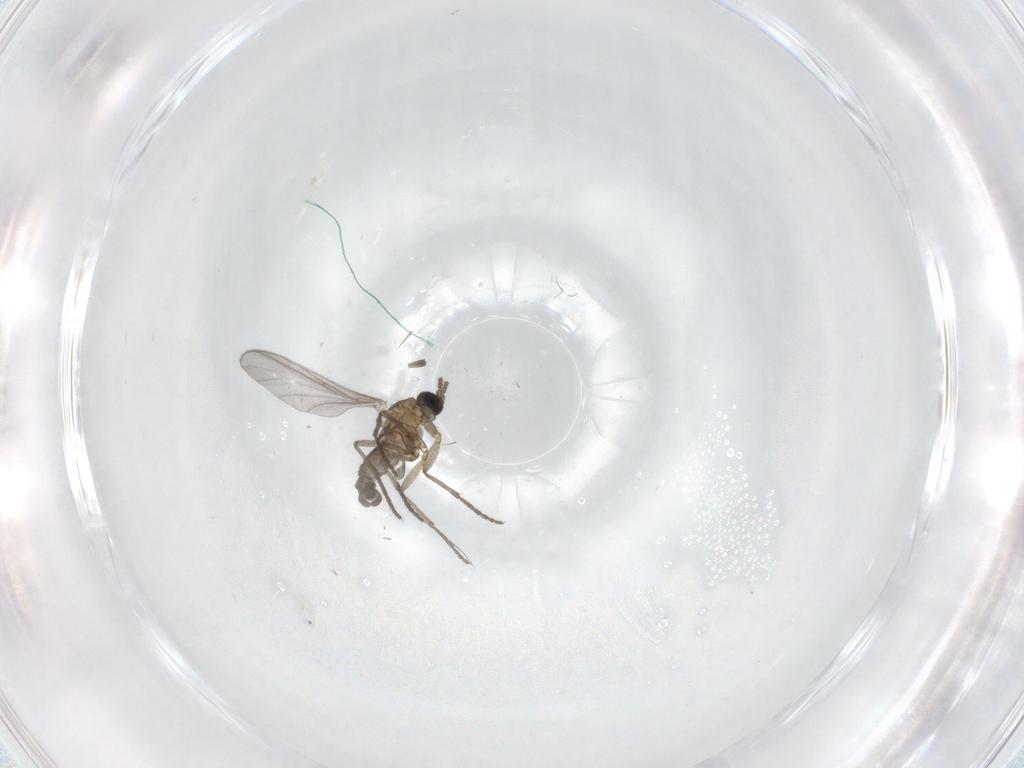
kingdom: Animalia
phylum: Arthropoda
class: Insecta
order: Diptera
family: Sciaridae
